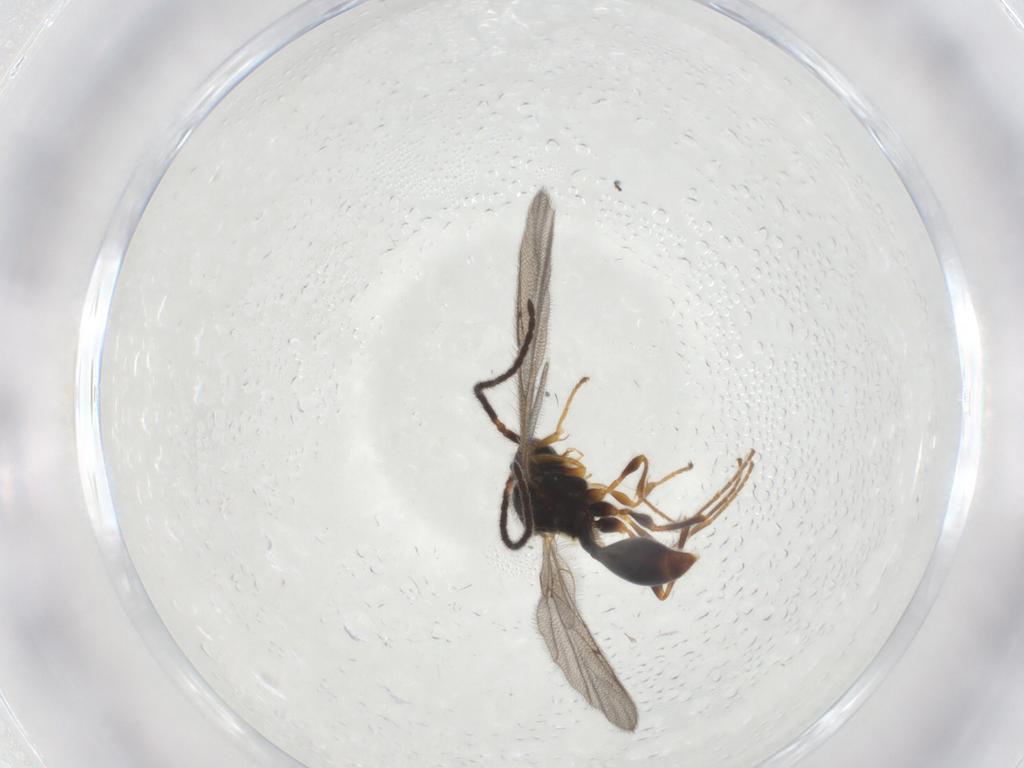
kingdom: Animalia
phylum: Arthropoda
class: Insecta
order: Hymenoptera
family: Diapriidae
